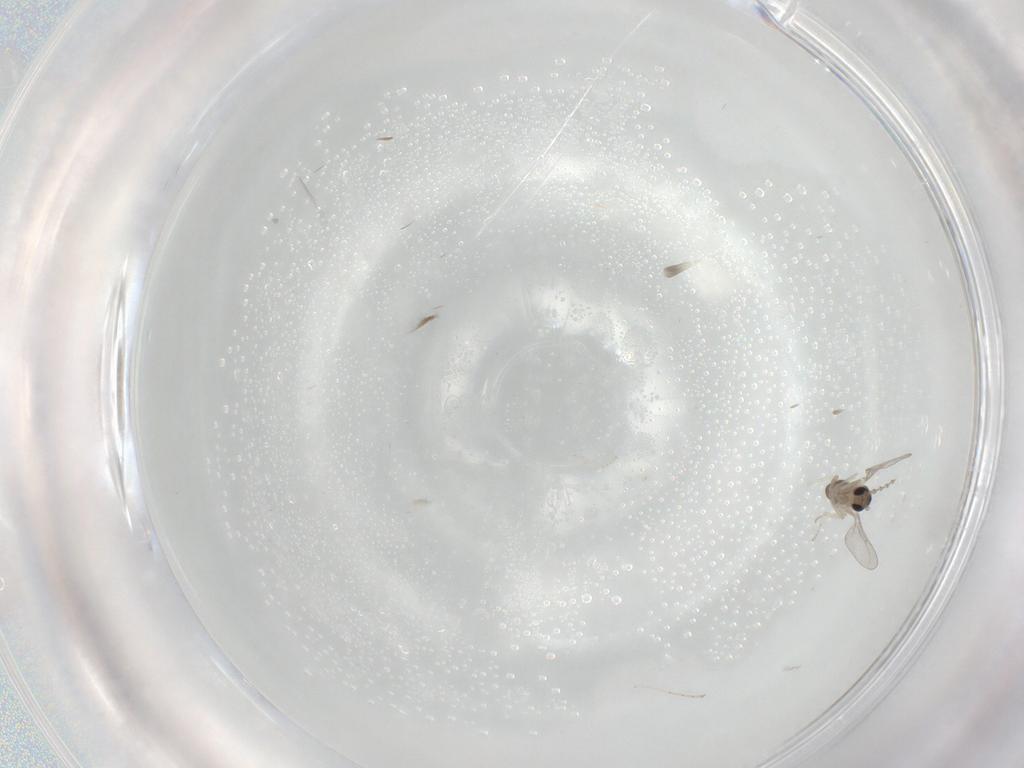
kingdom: Animalia
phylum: Arthropoda
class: Insecta
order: Diptera
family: Cecidomyiidae
